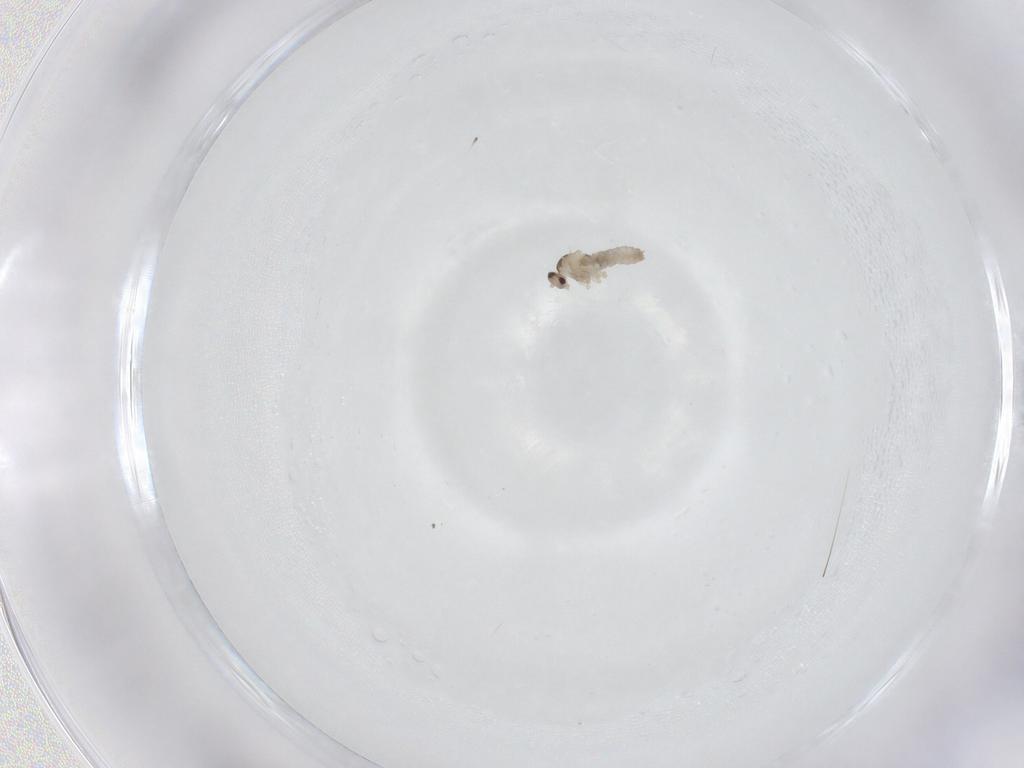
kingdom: Animalia
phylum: Arthropoda
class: Insecta
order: Diptera
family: Cecidomyiidae
